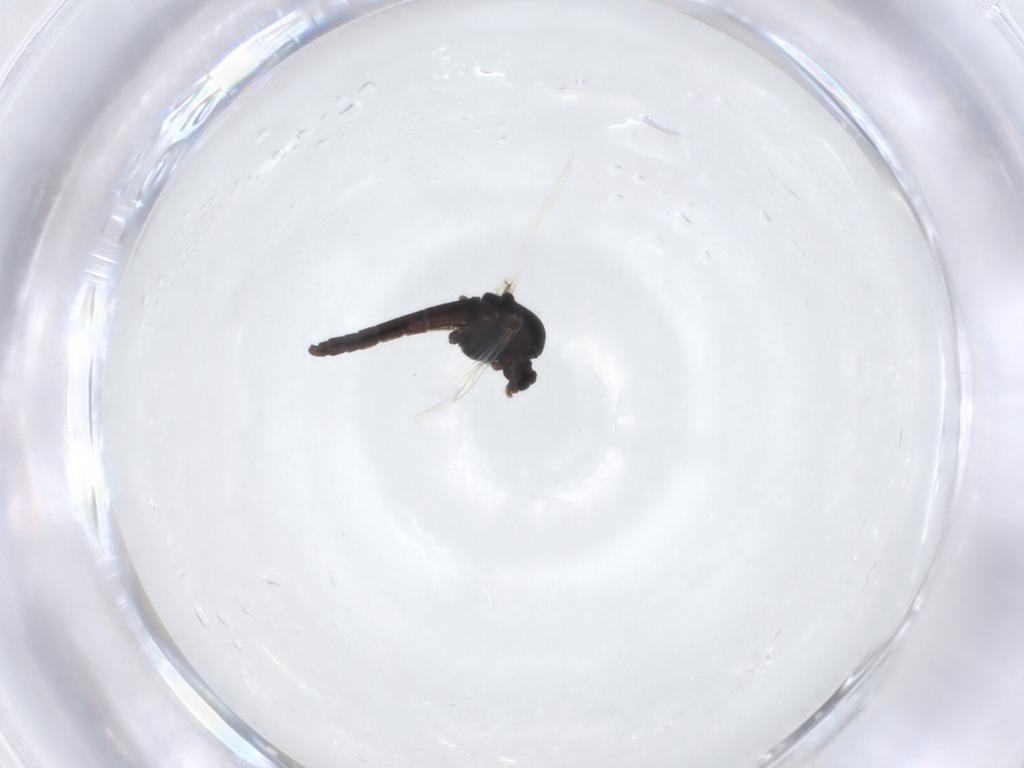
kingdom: Animalia
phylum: Arthropoda
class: Insecta
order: Diptera
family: Chironomidae
